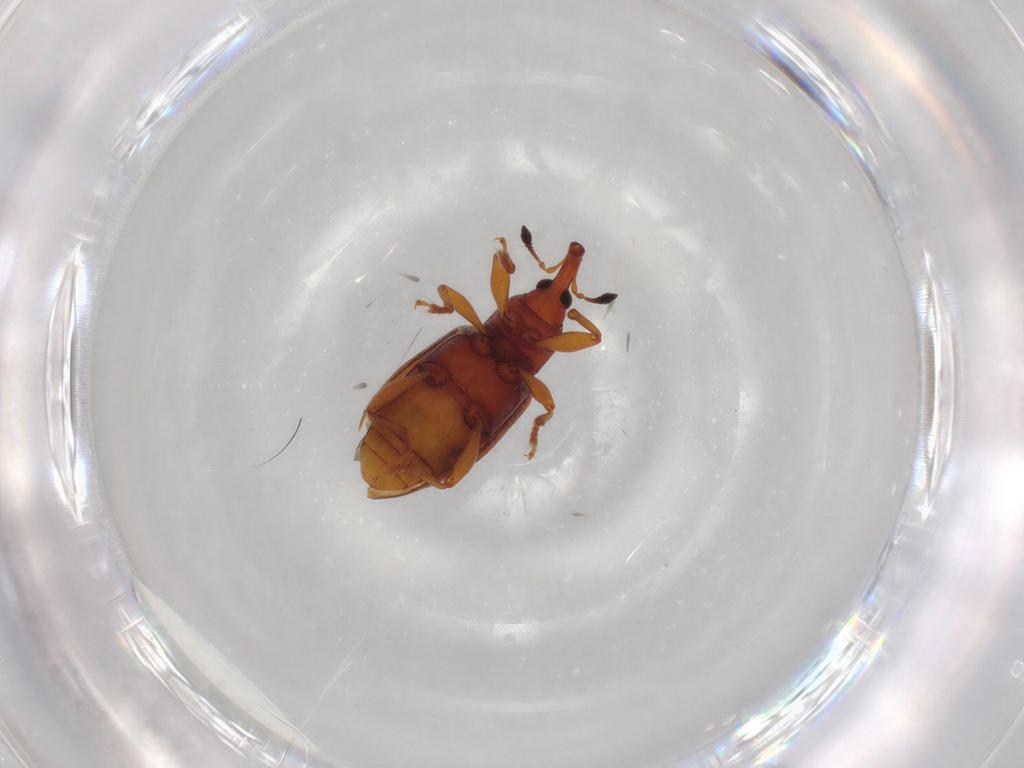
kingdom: Animalia
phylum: Arthropoda
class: Insecta
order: Coleoptera
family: Curculionidae
